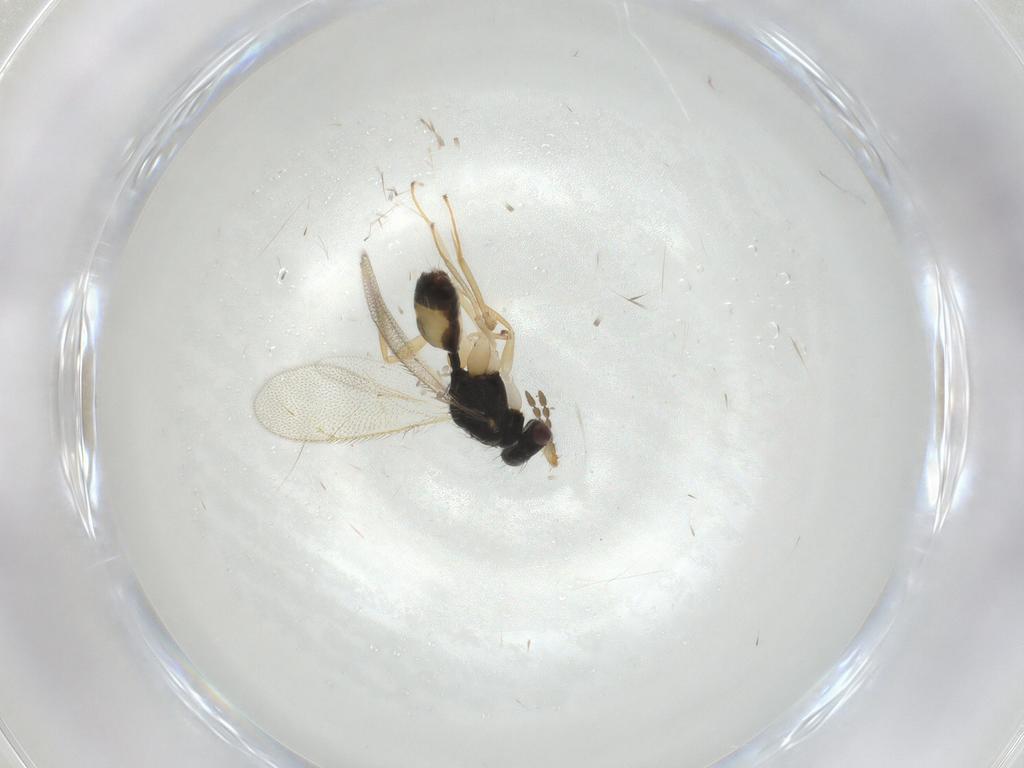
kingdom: Animalia
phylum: Arthropoda
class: Insecta
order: Hymenoptera
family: Eulophidae
